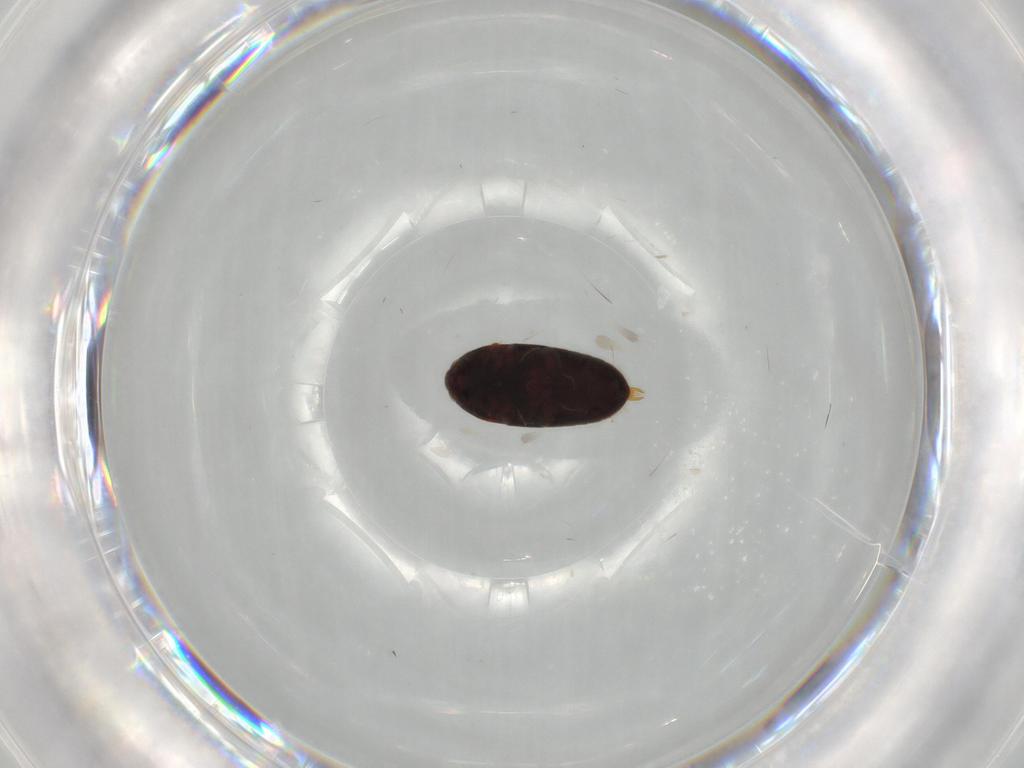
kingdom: Animalia
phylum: Arthropoda
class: Insecta
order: Coleoptera
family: Throscidae
